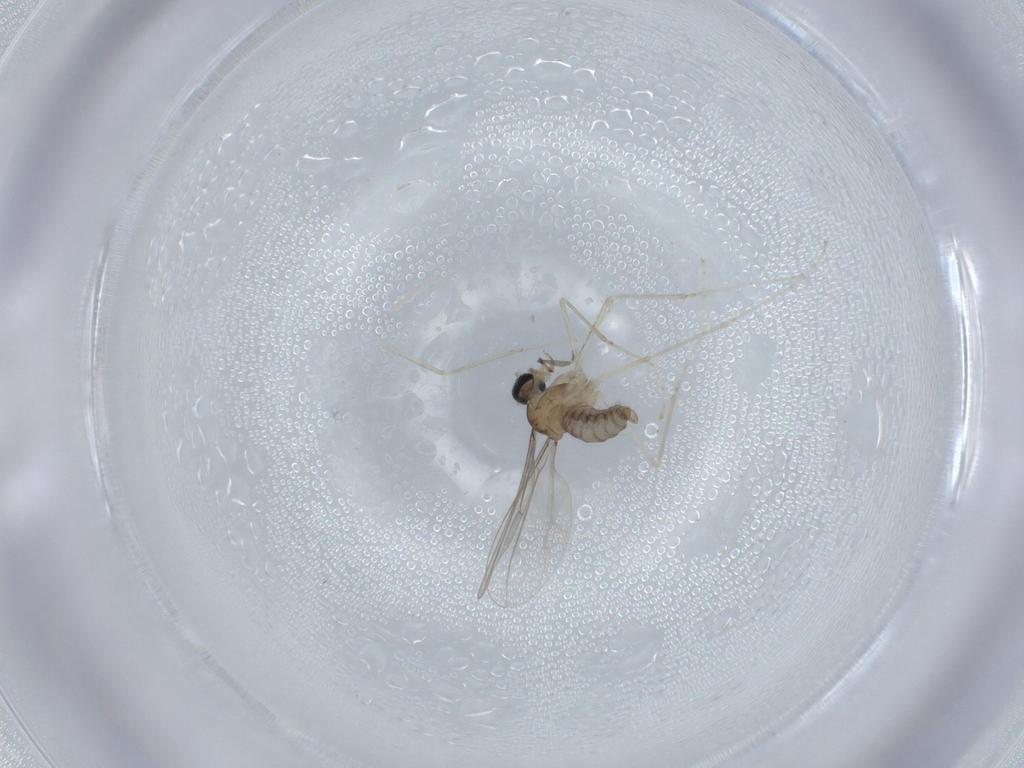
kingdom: Animalia
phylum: Arthropoda
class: Insecta
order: Diptera
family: Cecidomyiidae
